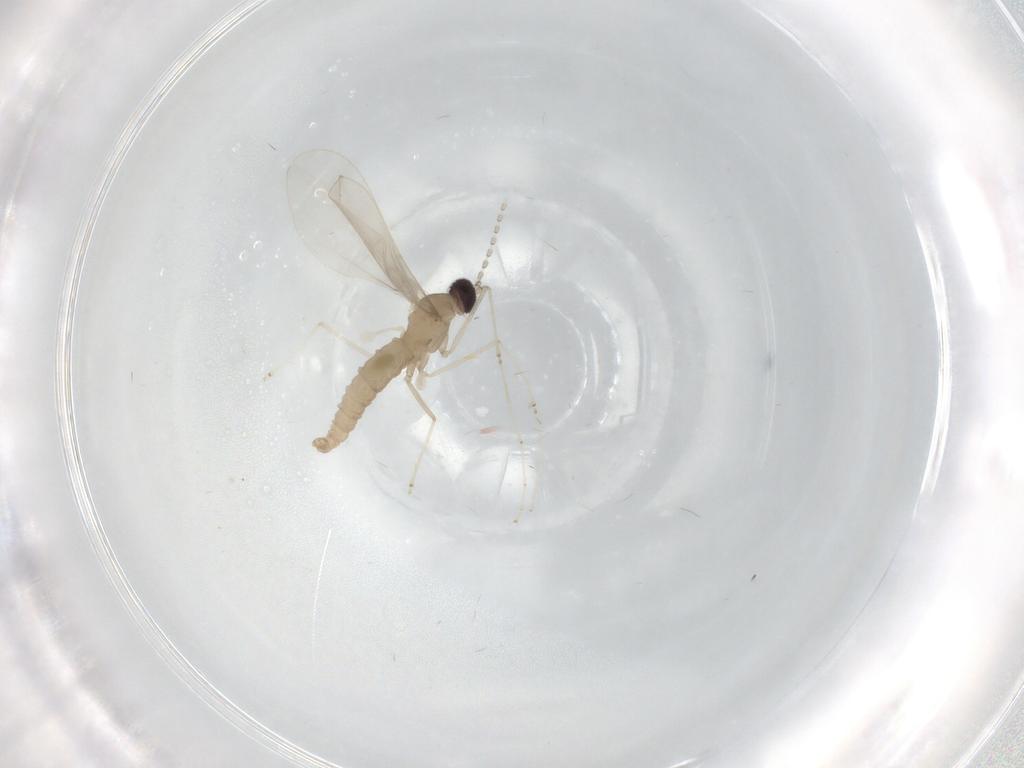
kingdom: Animalia
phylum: Arthropoda
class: Insecta
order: Diptera
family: Cecidomyiidae
